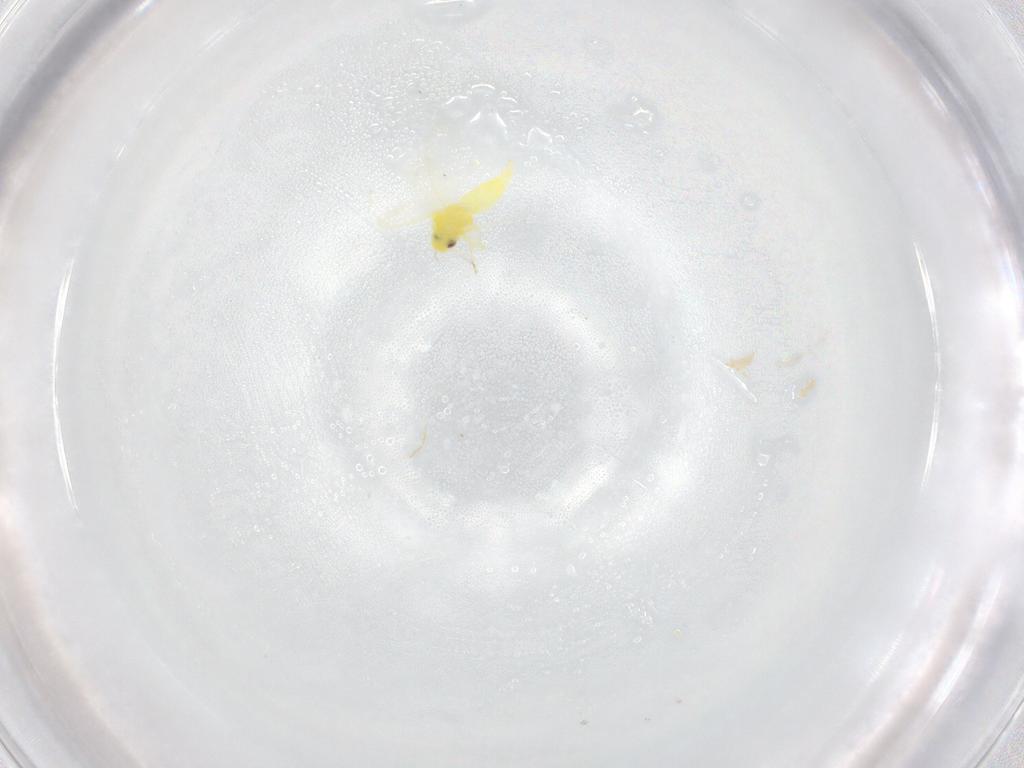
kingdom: Animalia
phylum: Arthropoda
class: Insecta
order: Hemiptera
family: Aleyrodidae
